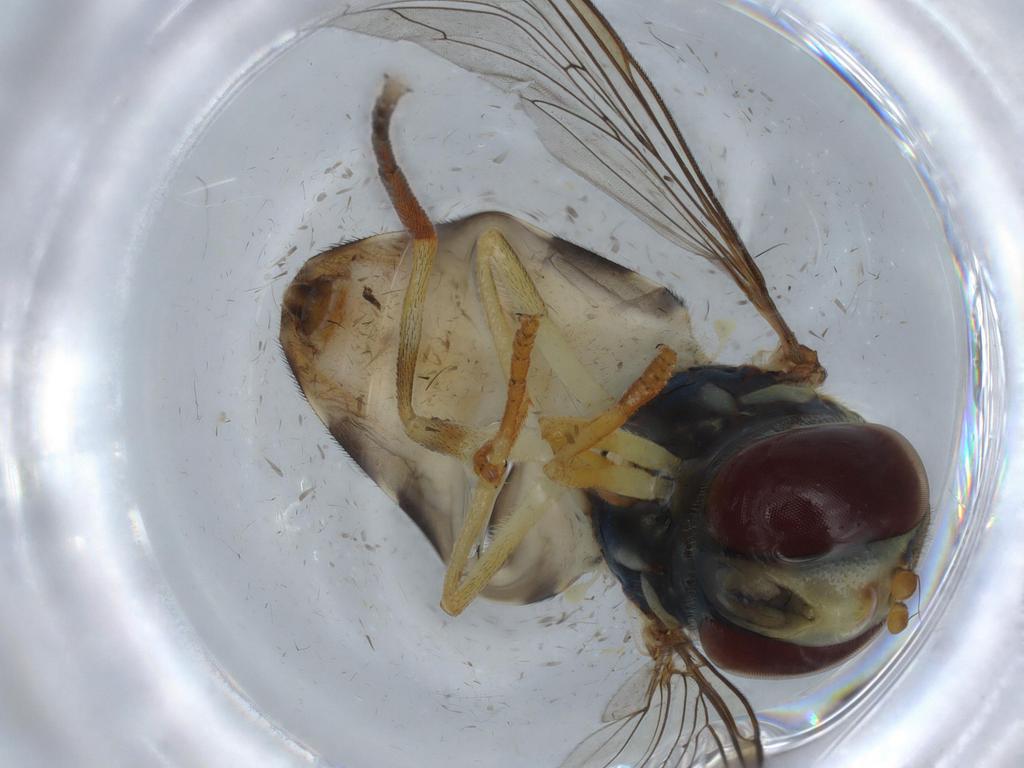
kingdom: Animalia
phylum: Arthropoda
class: Insecta
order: Diptera
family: Syrphidae
